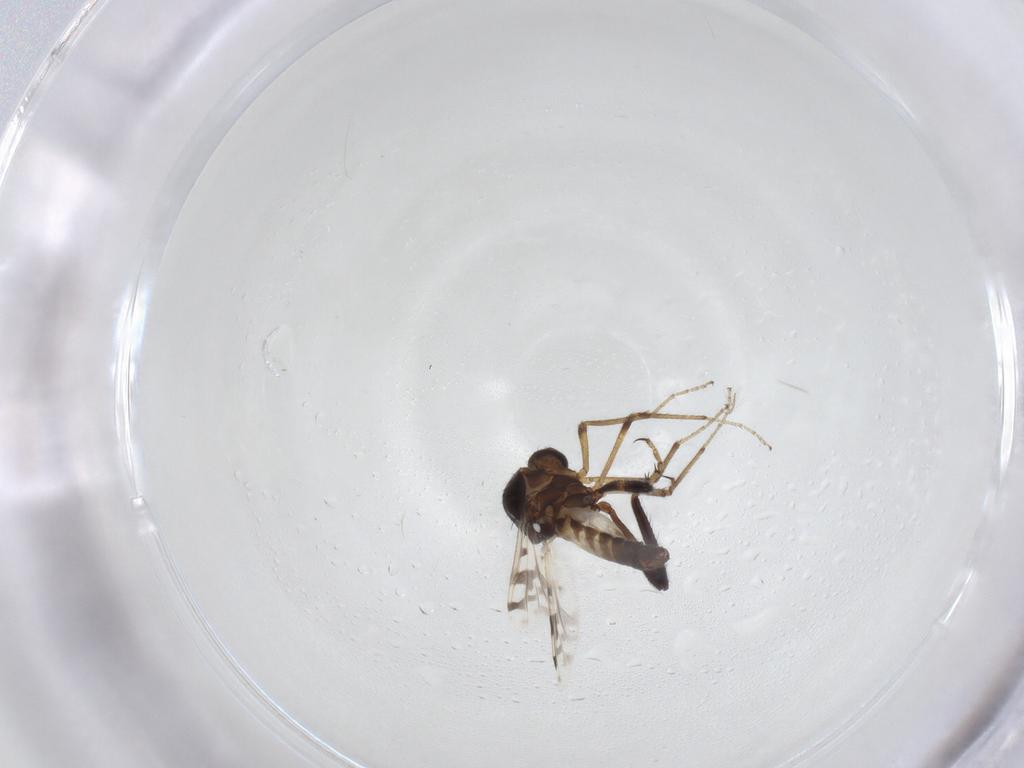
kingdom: Animalia
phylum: Arthropoda
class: Insecta
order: Diptera
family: Ceratopogonidae
